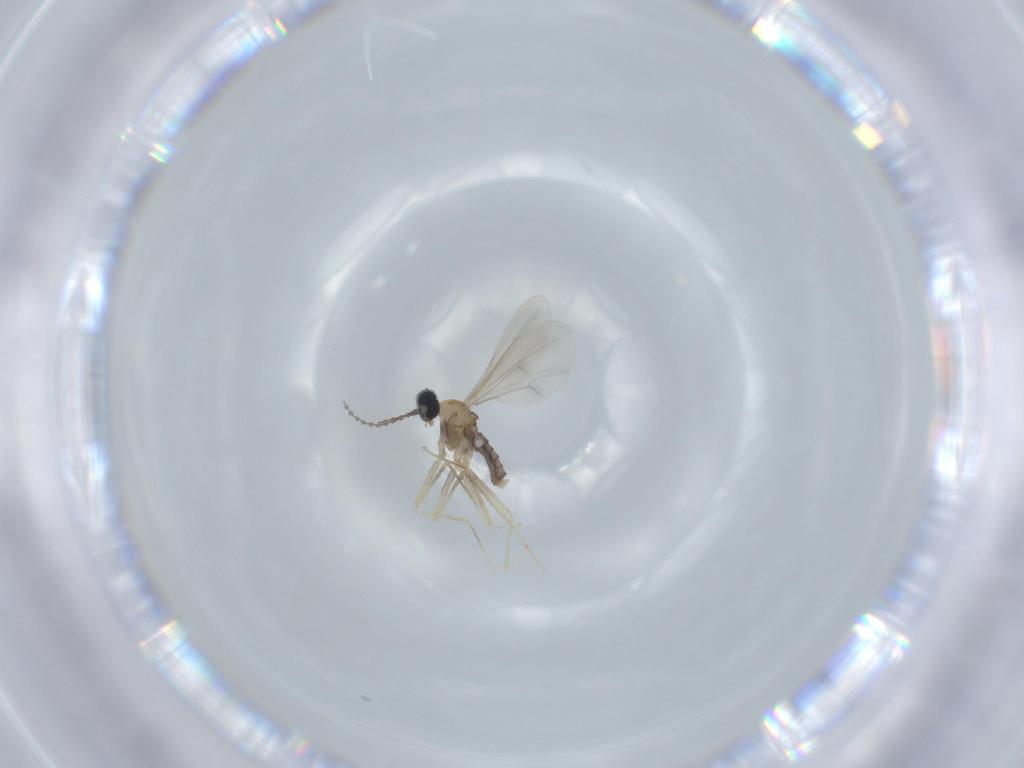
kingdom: Animalia
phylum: Arthropoda
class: Insecta
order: Diptera
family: Cecidomyiidae
